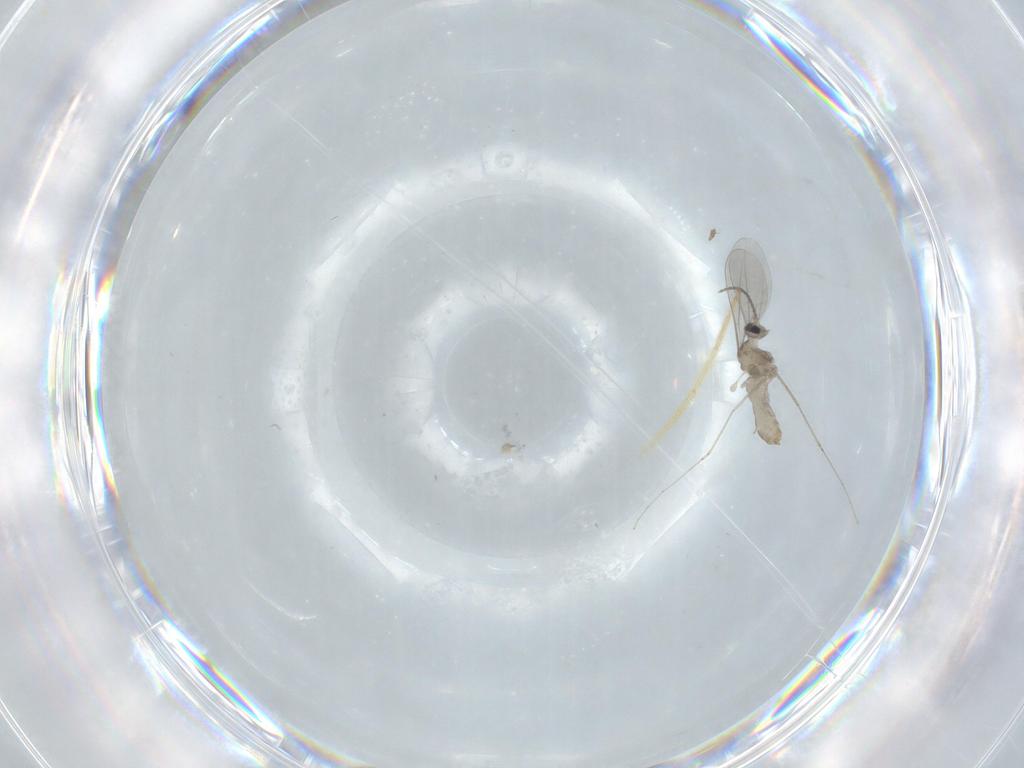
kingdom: Animalia
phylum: Arthropoda
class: Insecta
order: Diptera
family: Chironomidae
